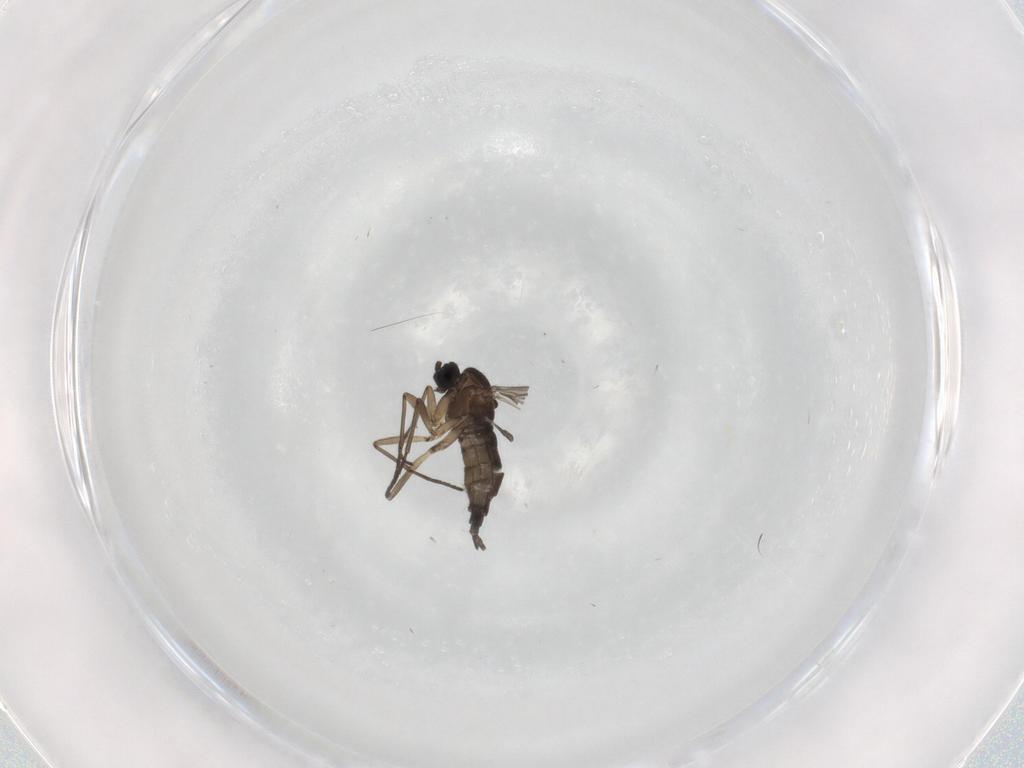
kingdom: Animalia
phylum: Arthropoda
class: Insecta
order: Diptera
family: Sciaridae
